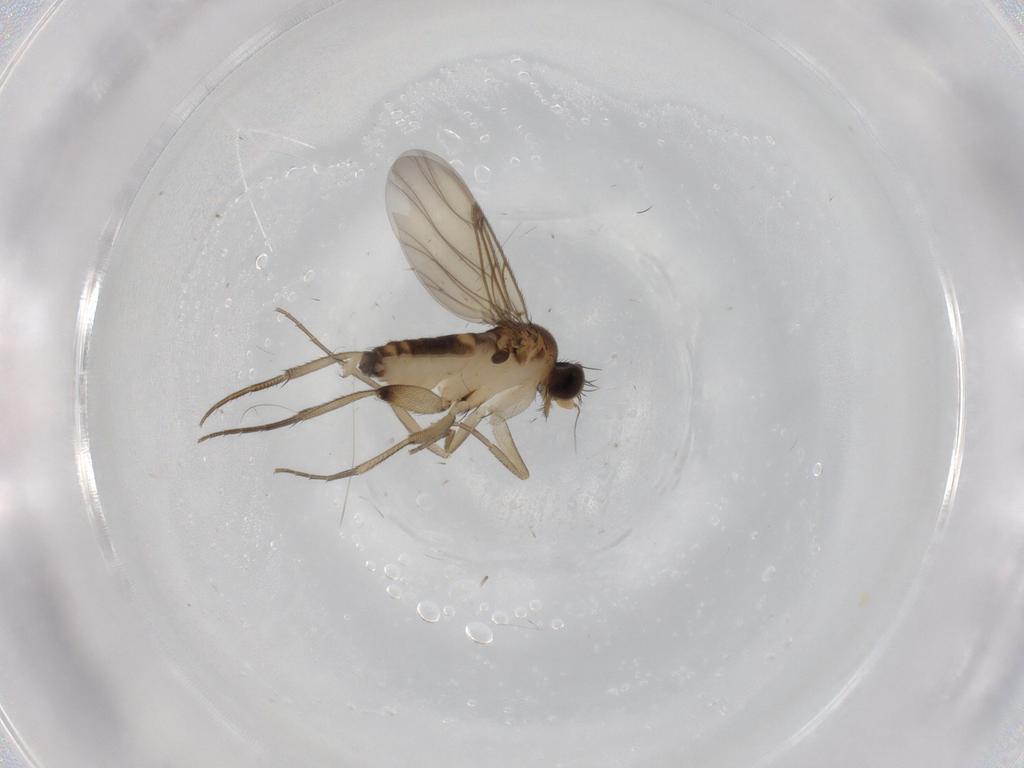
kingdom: Animalia
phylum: Arthropoda
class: Insecta
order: Diptera
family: Phoridae
